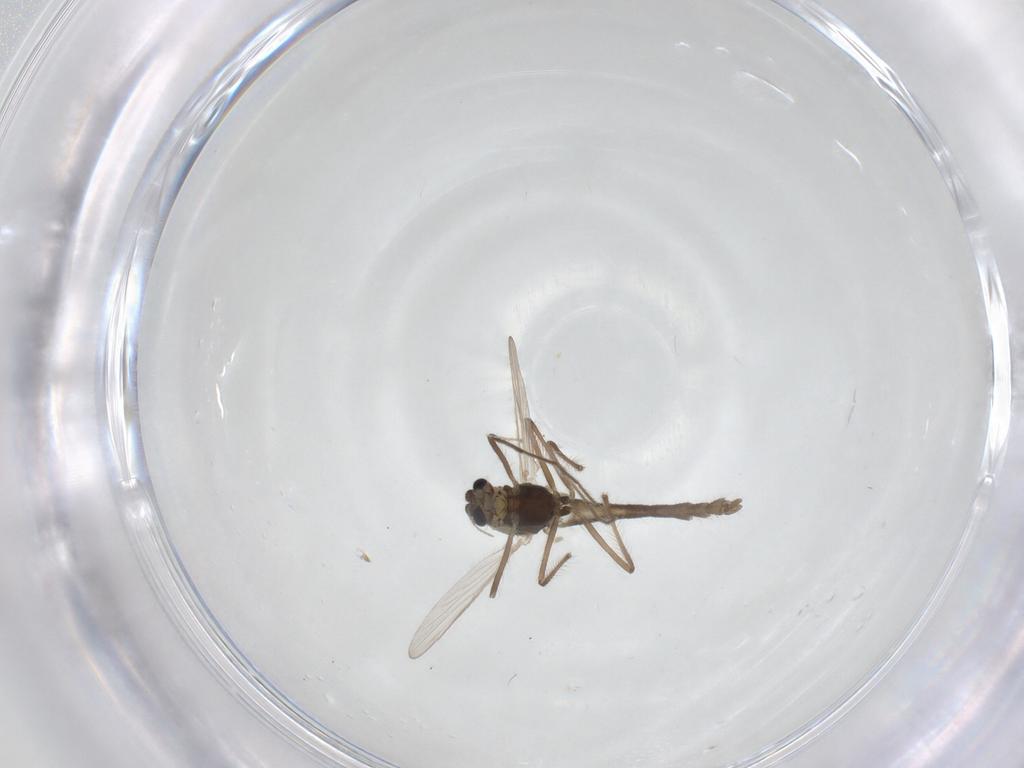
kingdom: Animalia
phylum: Arthropoda
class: Insecta
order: Diptera
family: Chironomidae
